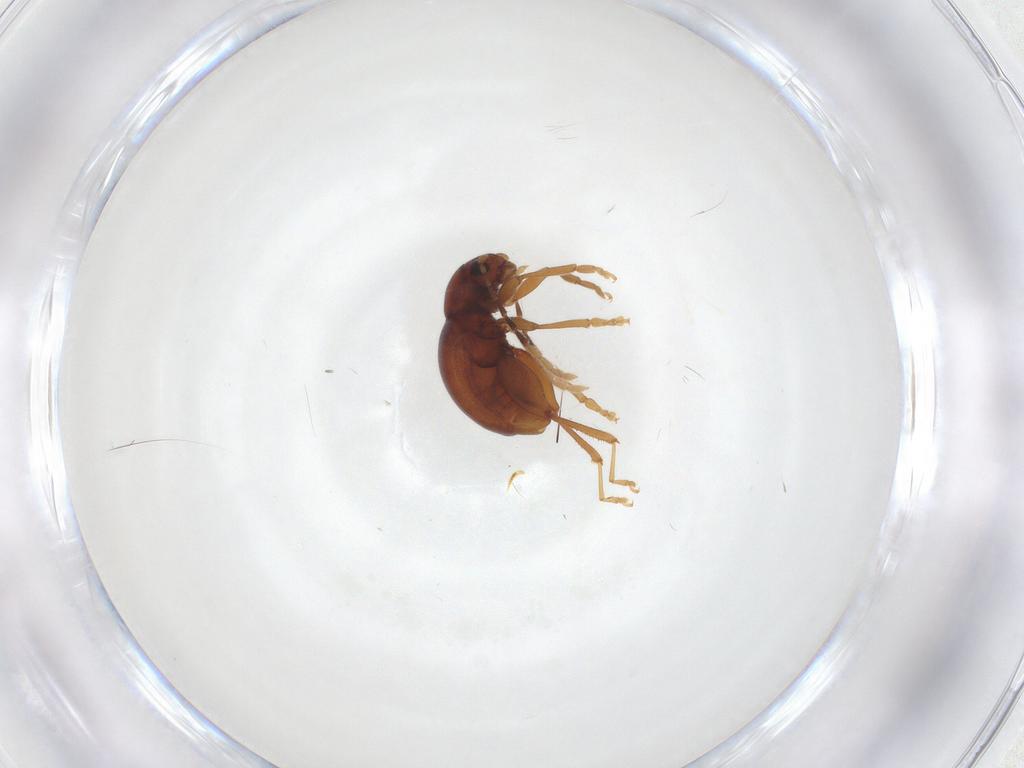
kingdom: Animalia
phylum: Arthropoda
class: Insecta
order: Coleoptera
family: Chrysomelidae
